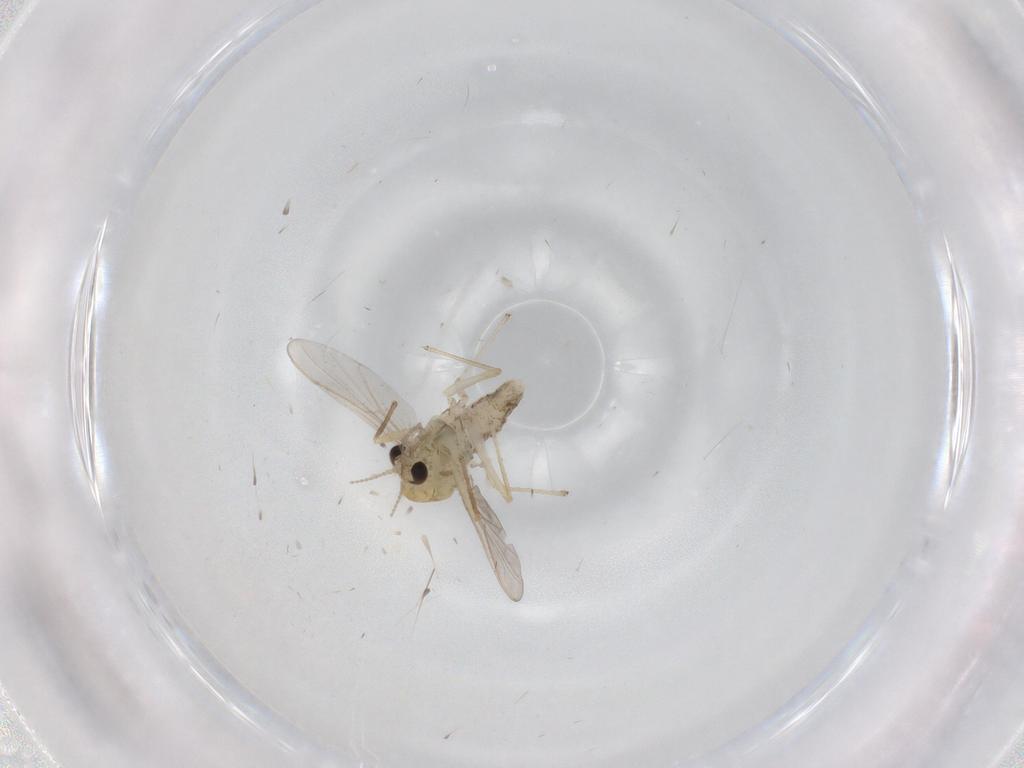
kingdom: Animalia
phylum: Arthropoda
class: Insecta
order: Diptera
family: Chironomidae
